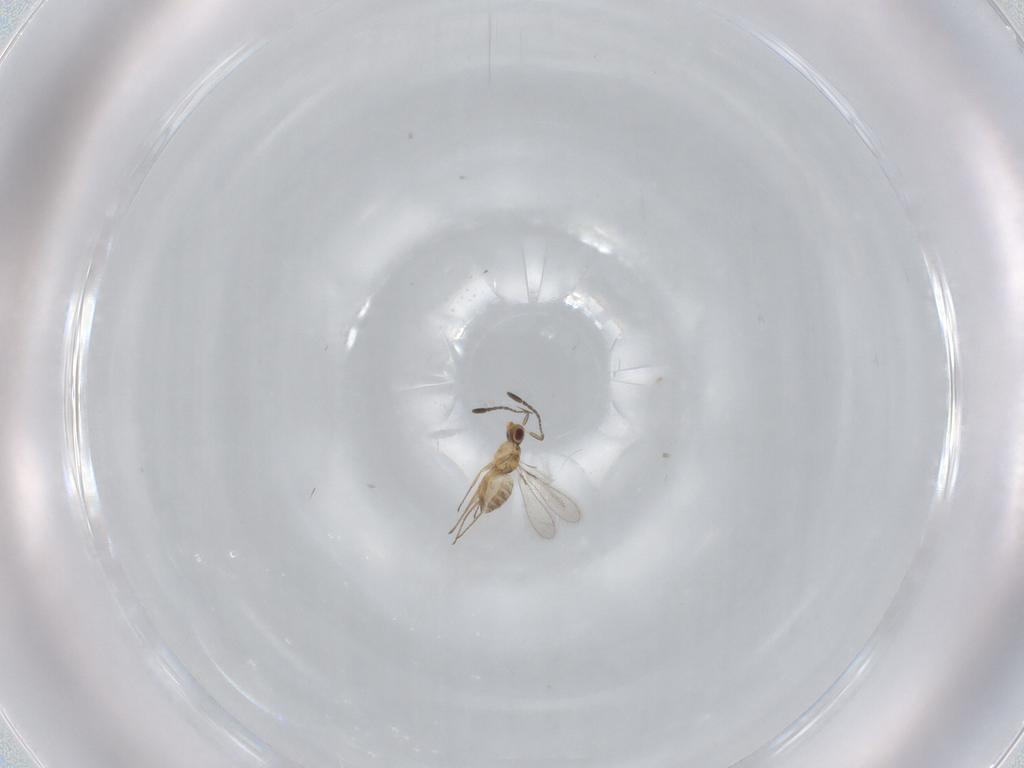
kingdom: Animalia
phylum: Arthropoda
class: Insecta
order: Hymenoptera
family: Mymaridae
